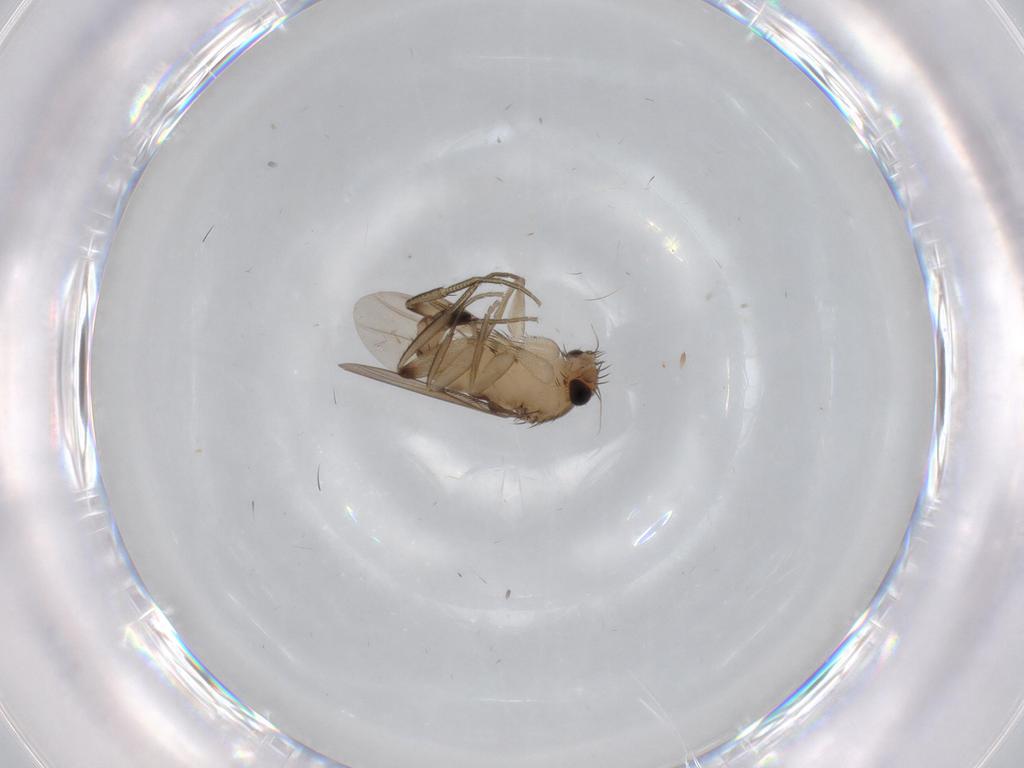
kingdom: Animalia
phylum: Arthropoda
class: Insecta
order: Diptera
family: Phoridae
